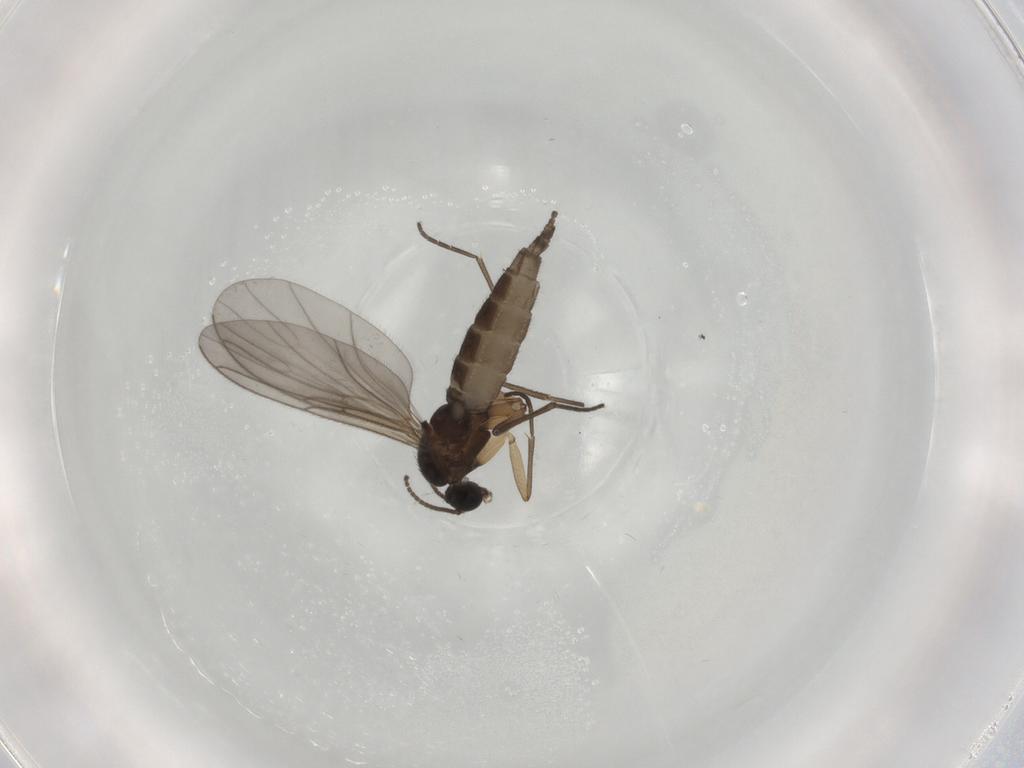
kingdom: Animalia
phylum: Arthropoda
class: Insecta
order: Diptera
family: Sciaridae
